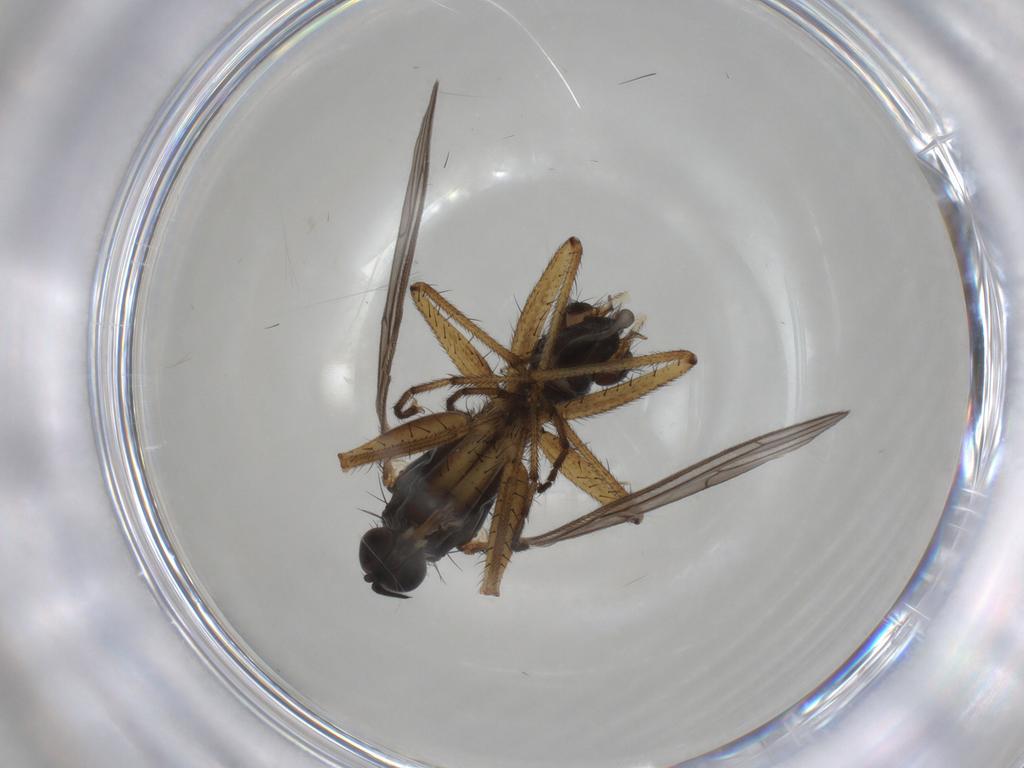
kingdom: Animalia
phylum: Arthropoda
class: Insecta
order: Diptera
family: Empididae
